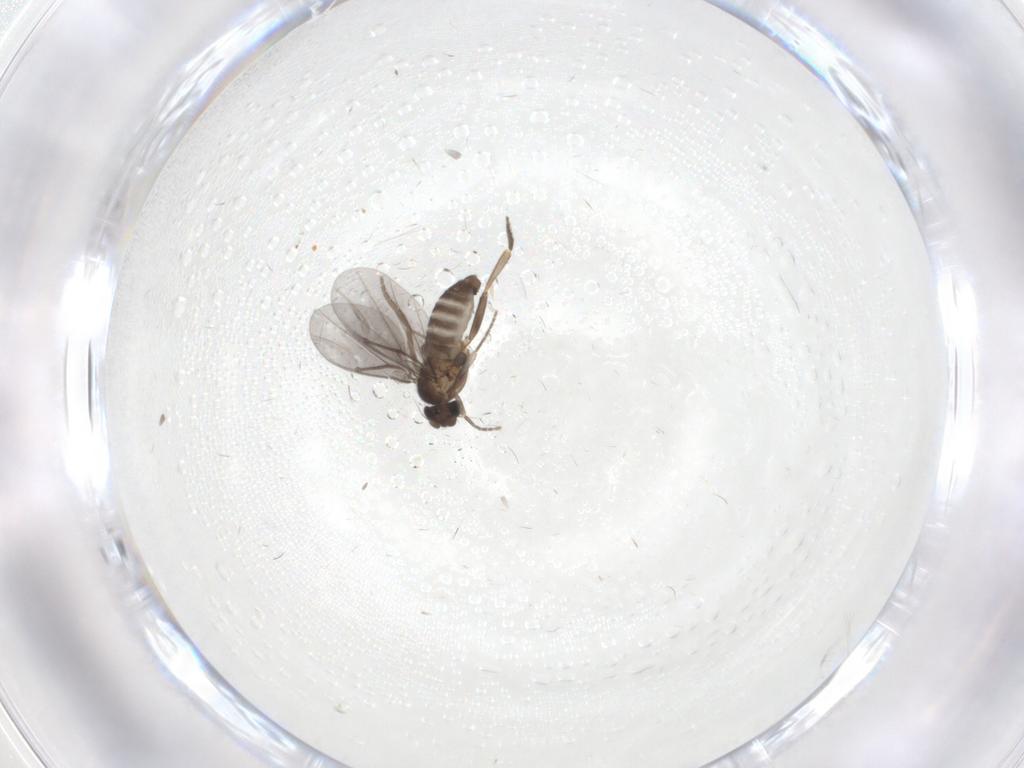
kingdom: Animalia
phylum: Arthropoda
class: Insecta
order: Diptera
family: Phoridae
